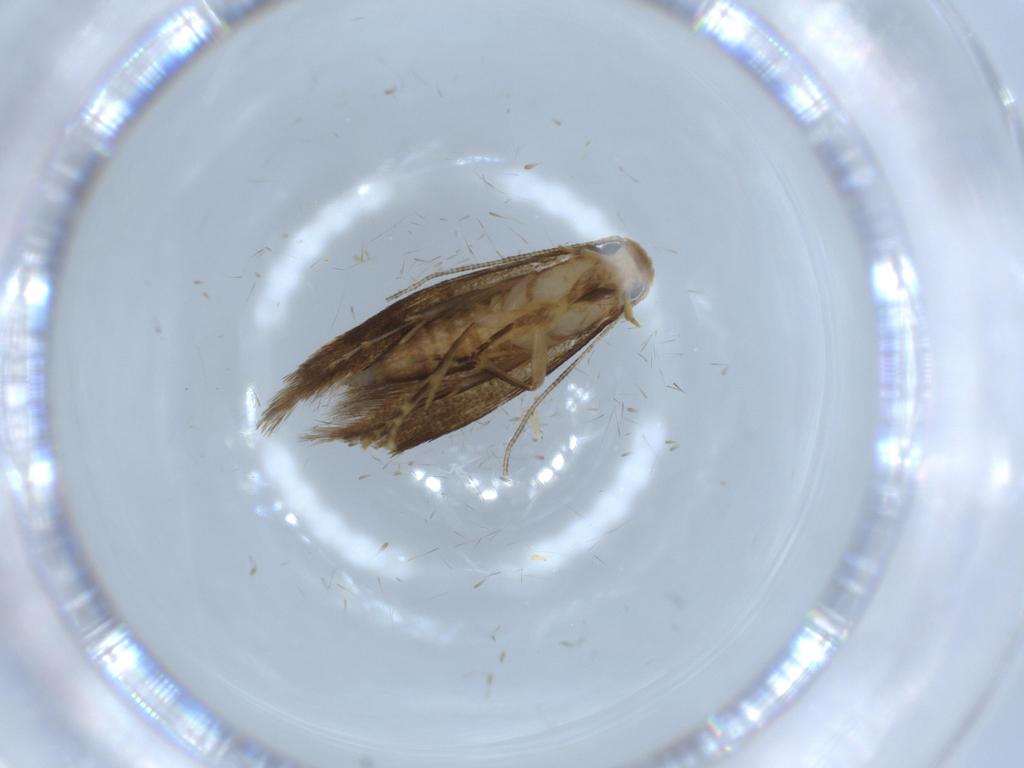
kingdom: Animalia
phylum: Arthropoda
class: Insecta
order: Lepidoptera
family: Tineidae
